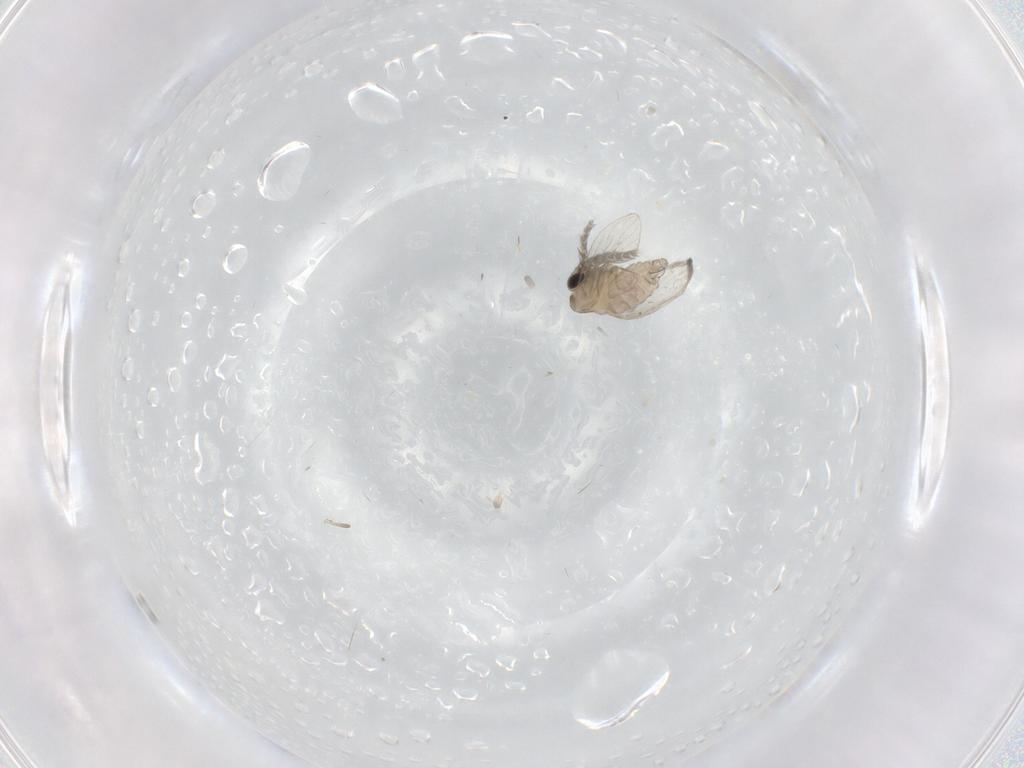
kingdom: Animalia
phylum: Arthropoda
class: Insecta
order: Diptera
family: Cecidomyiidae
